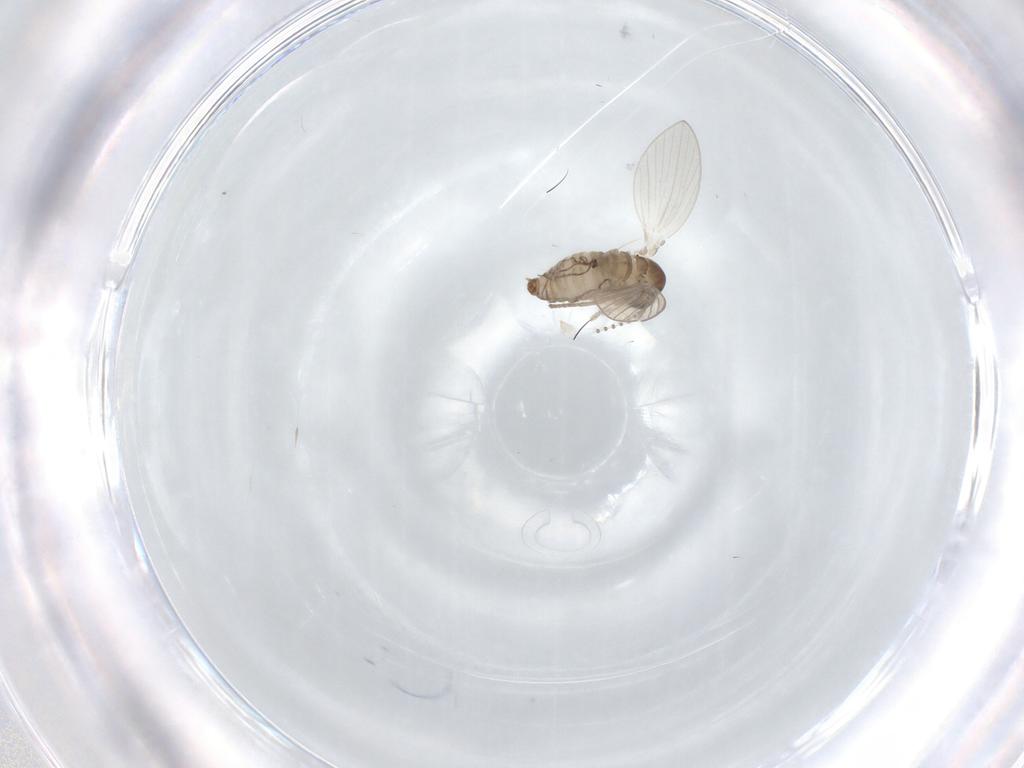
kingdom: Animalia
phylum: Arthropoda
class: Insecta
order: Diptera
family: Psychodidae
